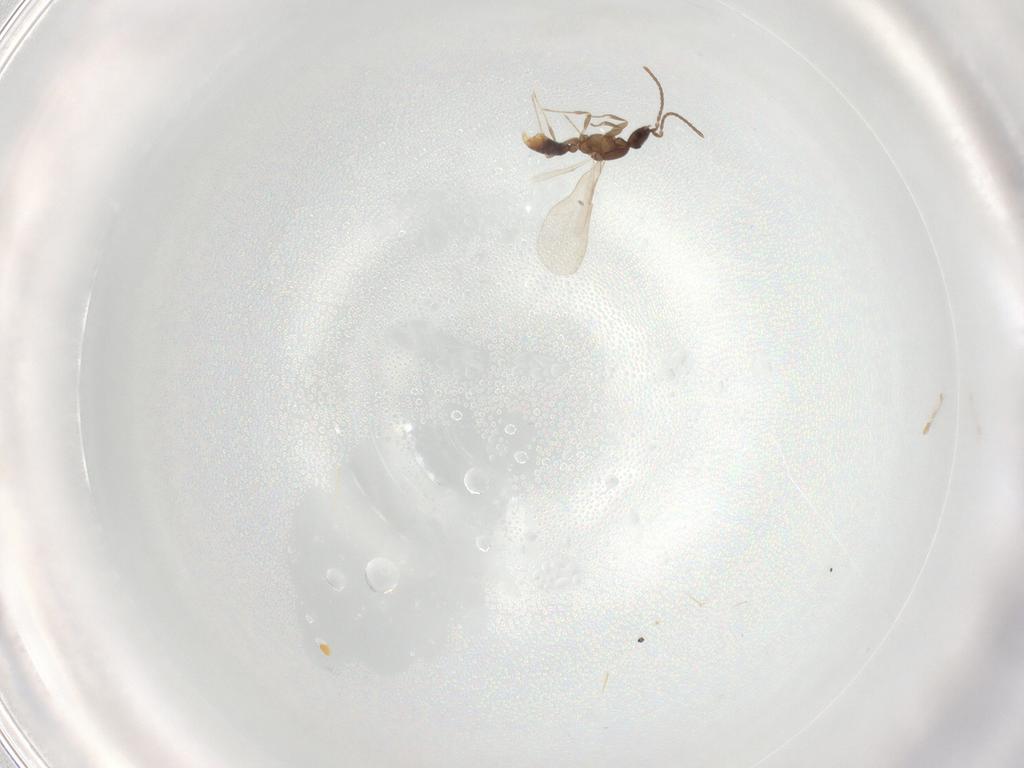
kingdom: Animalia
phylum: Arthropoda
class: Insecta
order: Hymenoptera
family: Formicidae
